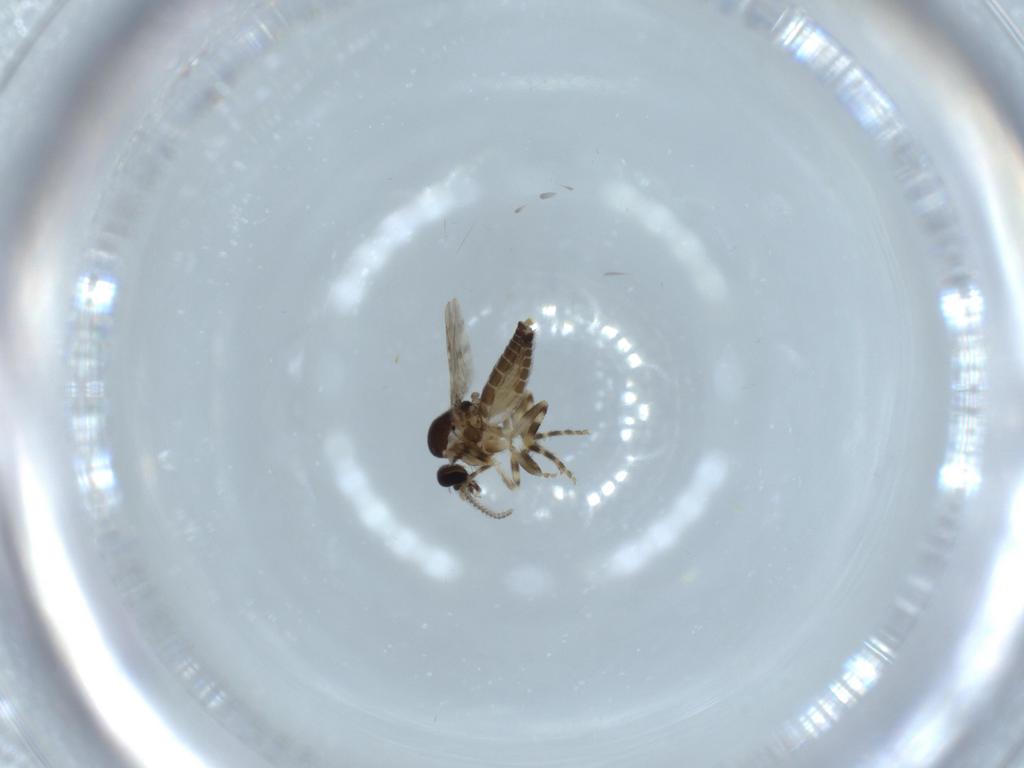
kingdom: Animalia
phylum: Arthropoda
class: Insecta
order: Diptera
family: Ceratopogonidae
